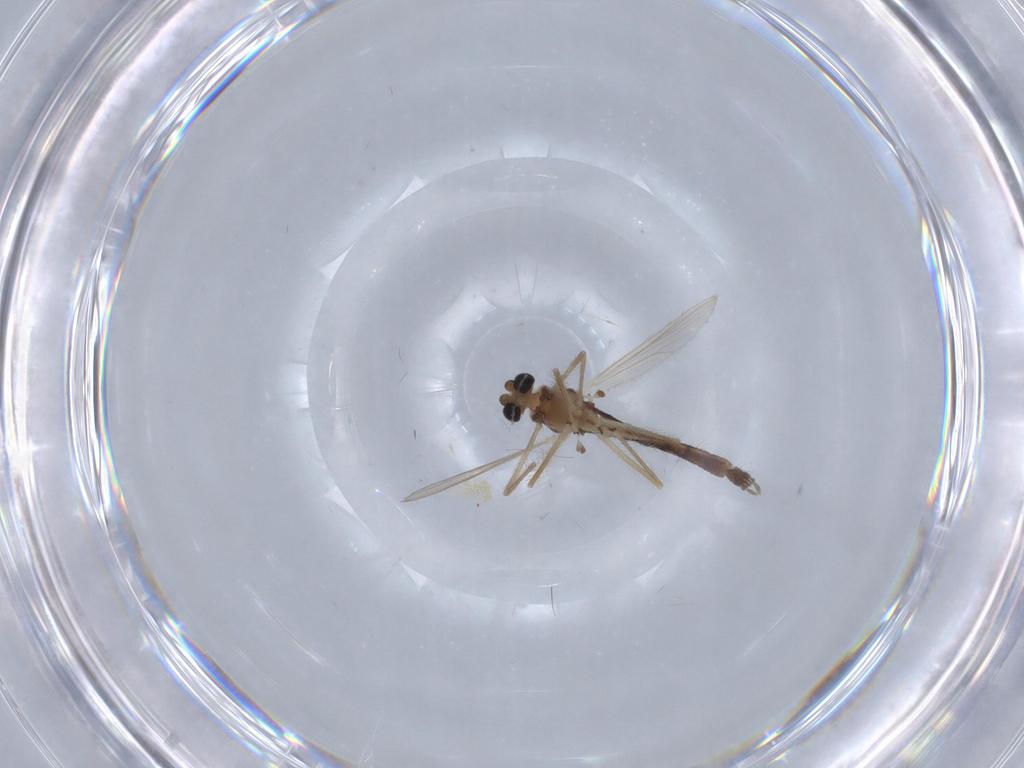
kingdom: Animalia
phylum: Arthropoda
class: Insecta
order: Diptera
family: Chironomidae
